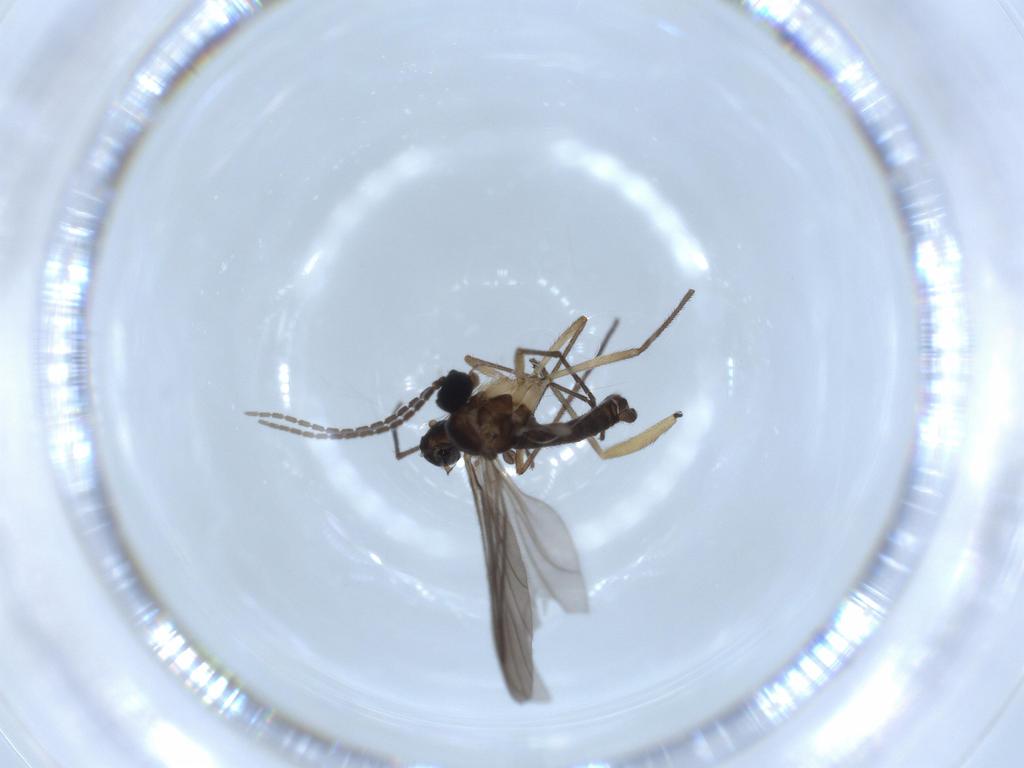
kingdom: Animalia
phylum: Arthropoda
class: Insecta
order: Diptera
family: Sciaridae
